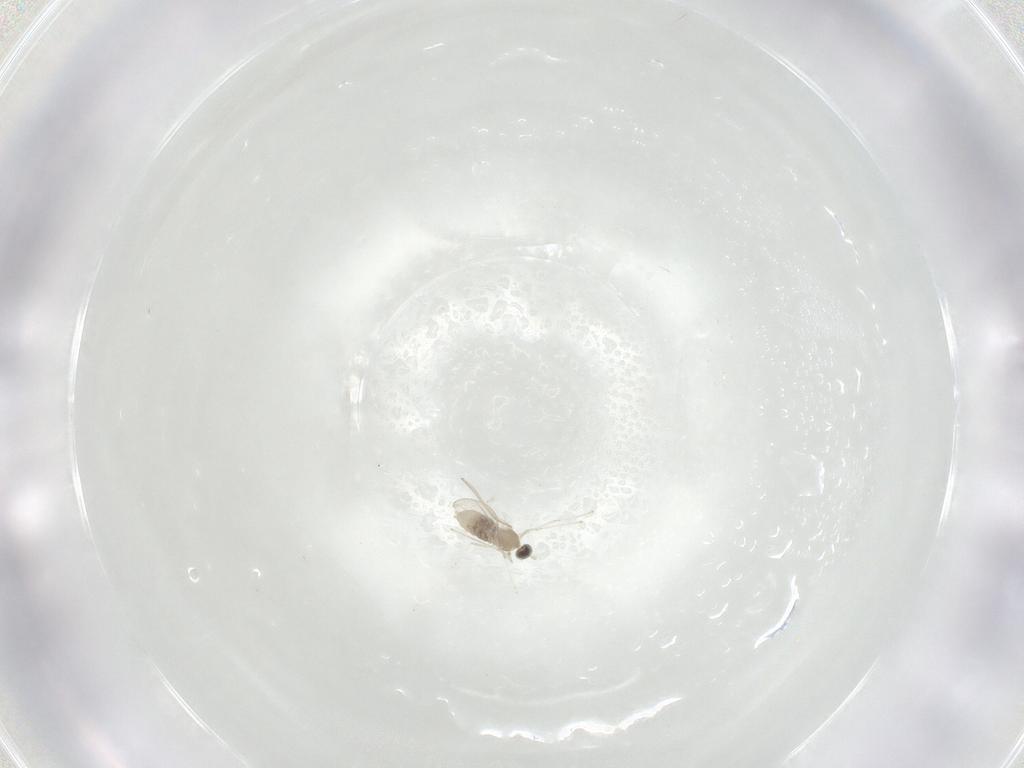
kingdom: Animalia
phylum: Arthropoda
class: Insecta
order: Diptera
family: Cecidomyiidae
